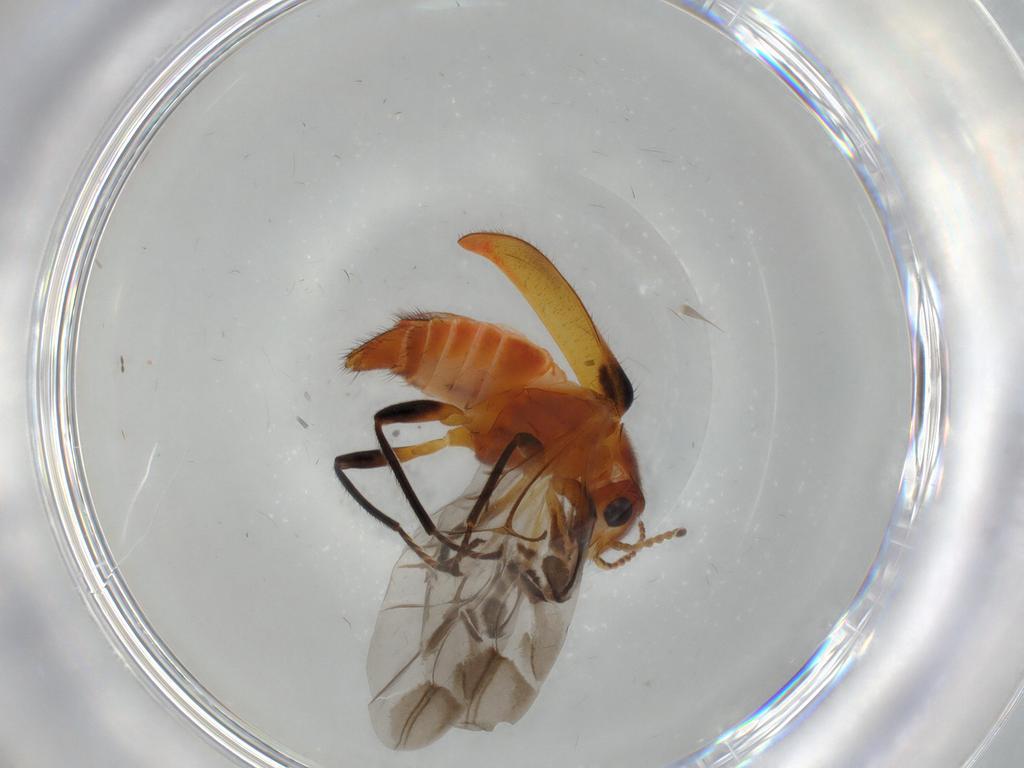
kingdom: Animalia
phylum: Arthropoda
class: Insecta
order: Coleoptera
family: Melyridae
